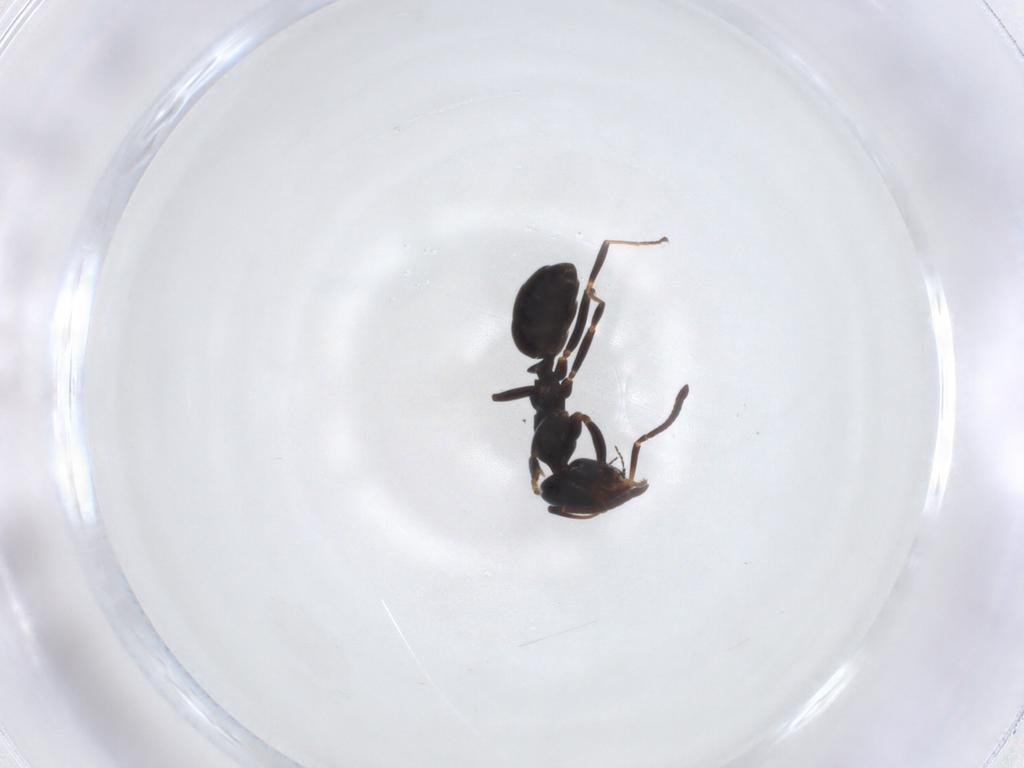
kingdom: Animalia
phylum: Arthropoda
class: Insecta
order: Hymenoptera
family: Formicidae
